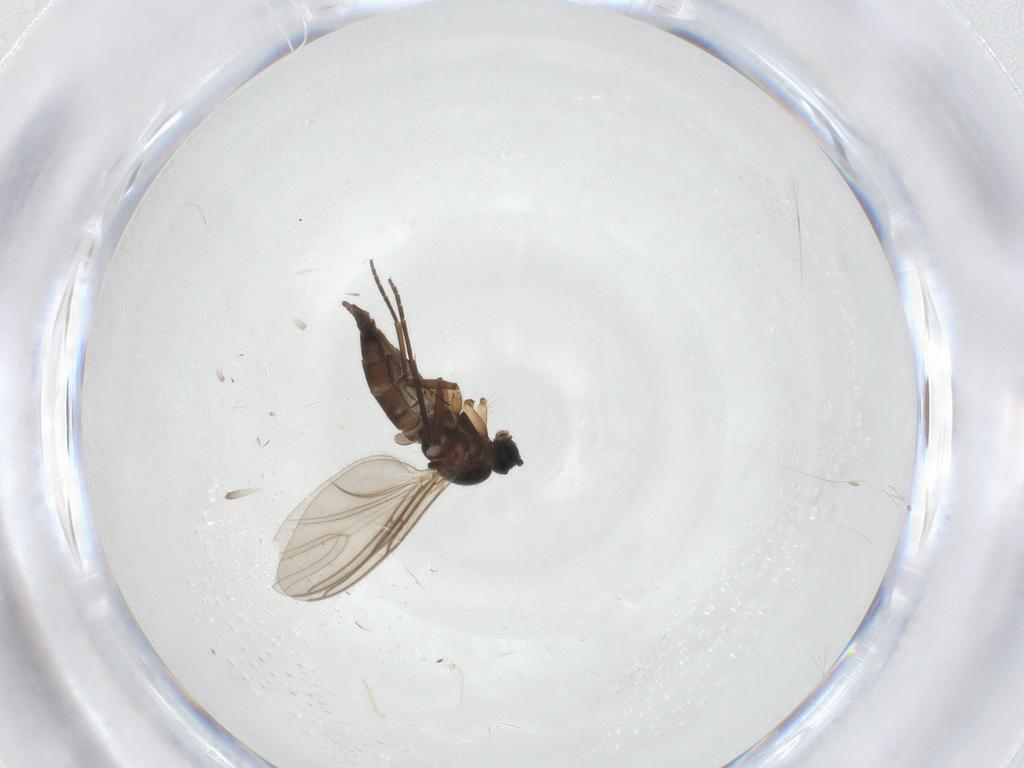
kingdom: Animalia
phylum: Arthropoda
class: Insecta
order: Diptera
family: Sciaridae
